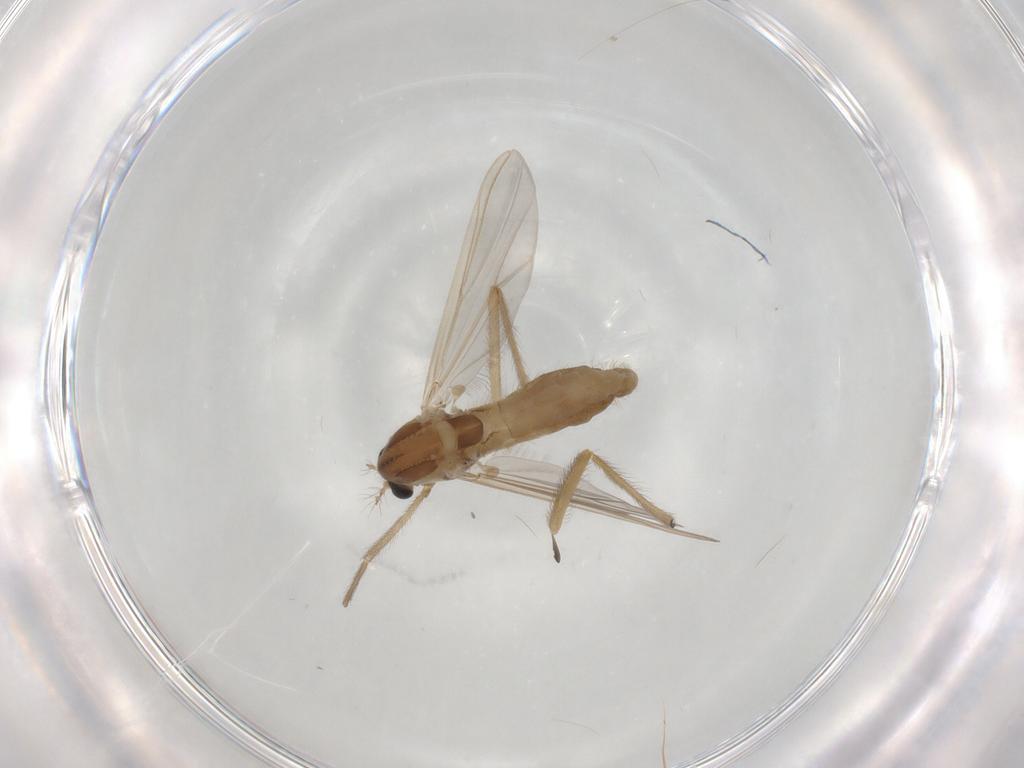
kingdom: Animalia
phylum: Arthropoda
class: Insecta
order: Diptera
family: Chironomidae
